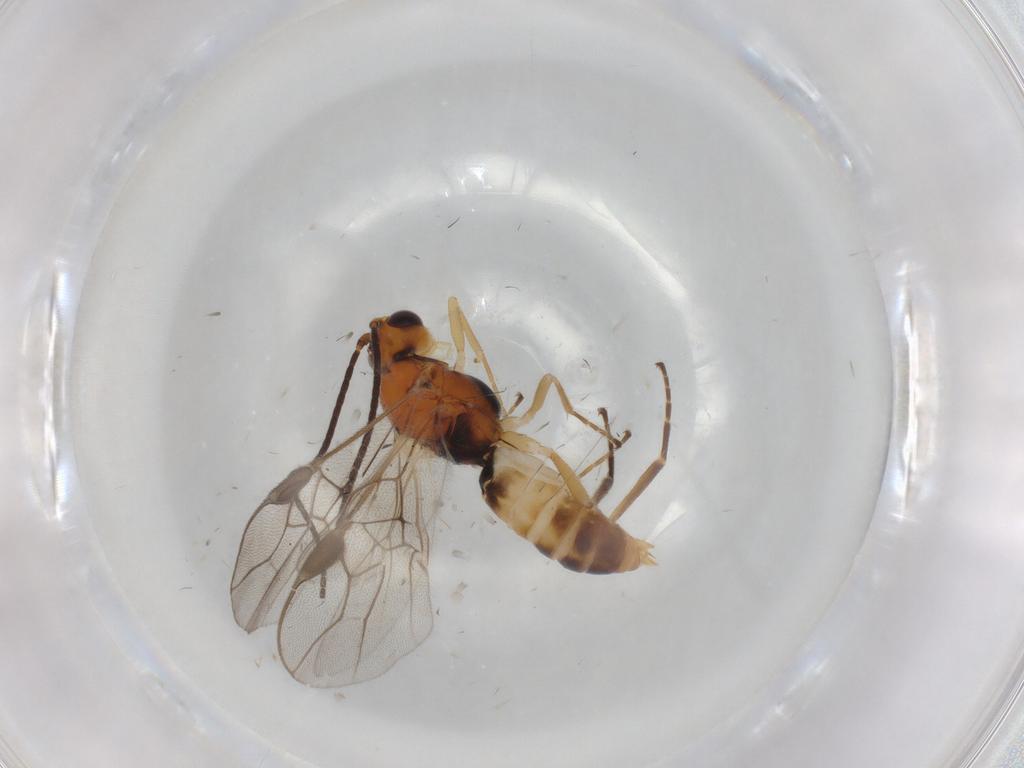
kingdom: Animalia
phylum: Arthropoda
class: Insecta
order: Hymenoptera
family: Braconidae
